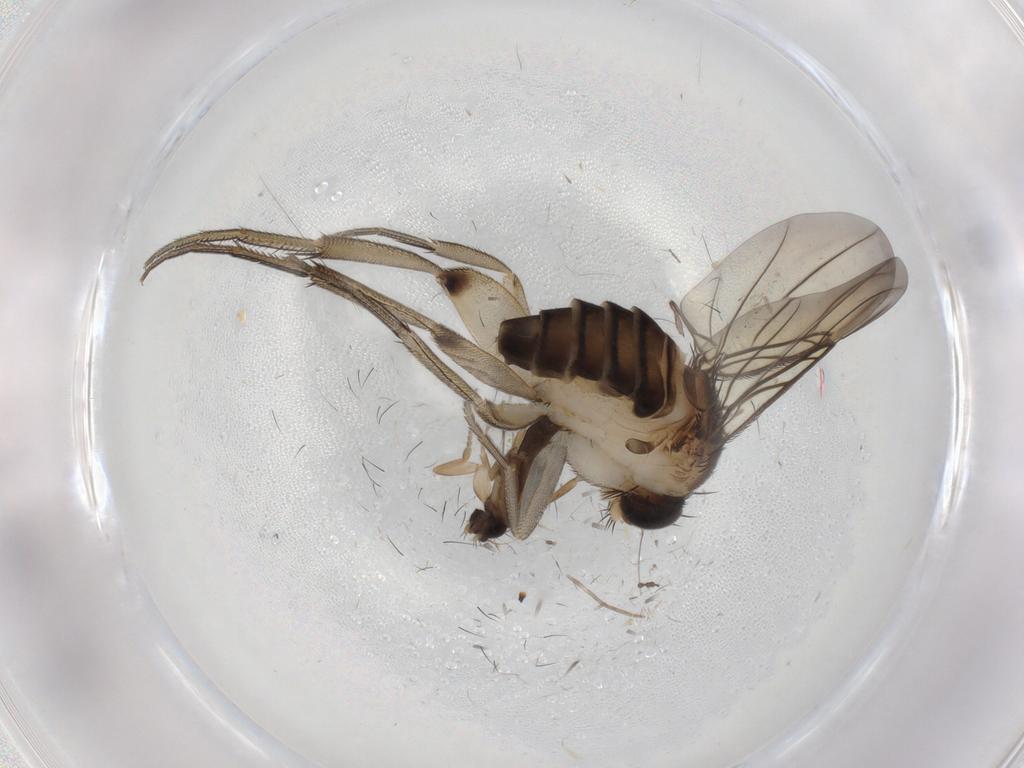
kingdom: Animalia
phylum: Arthropoda
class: Insecta
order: Diptera
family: Phoridae
